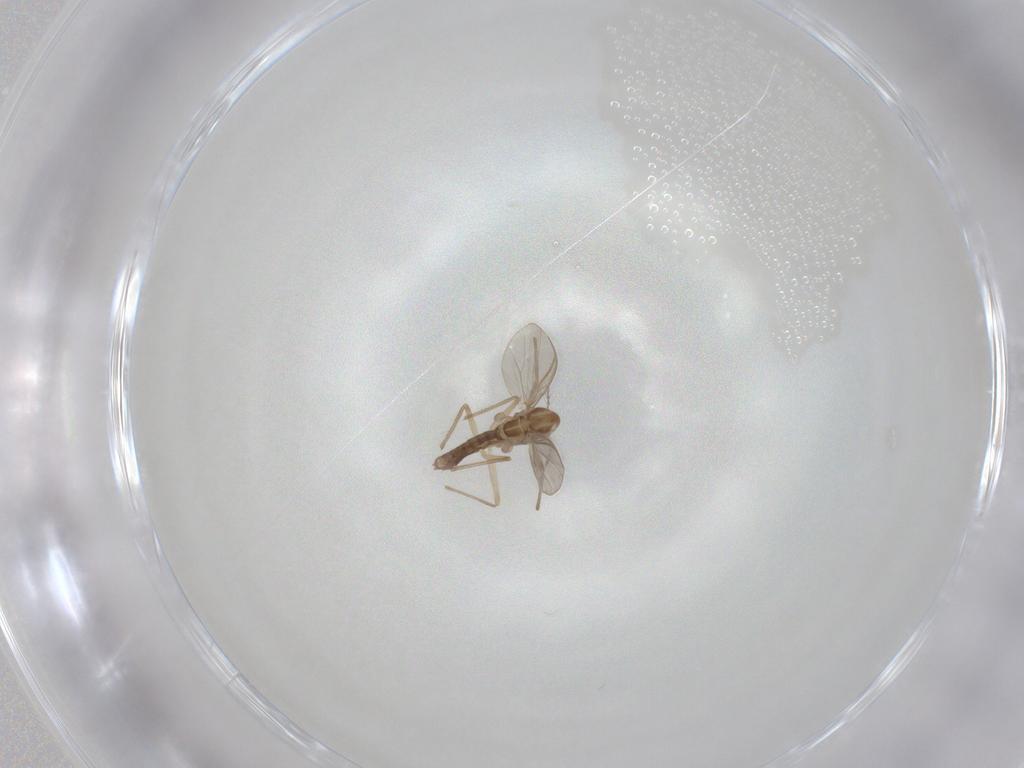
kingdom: Animalia
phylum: Arthropoda
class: Insecta
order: Diptera
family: Chironomidae
